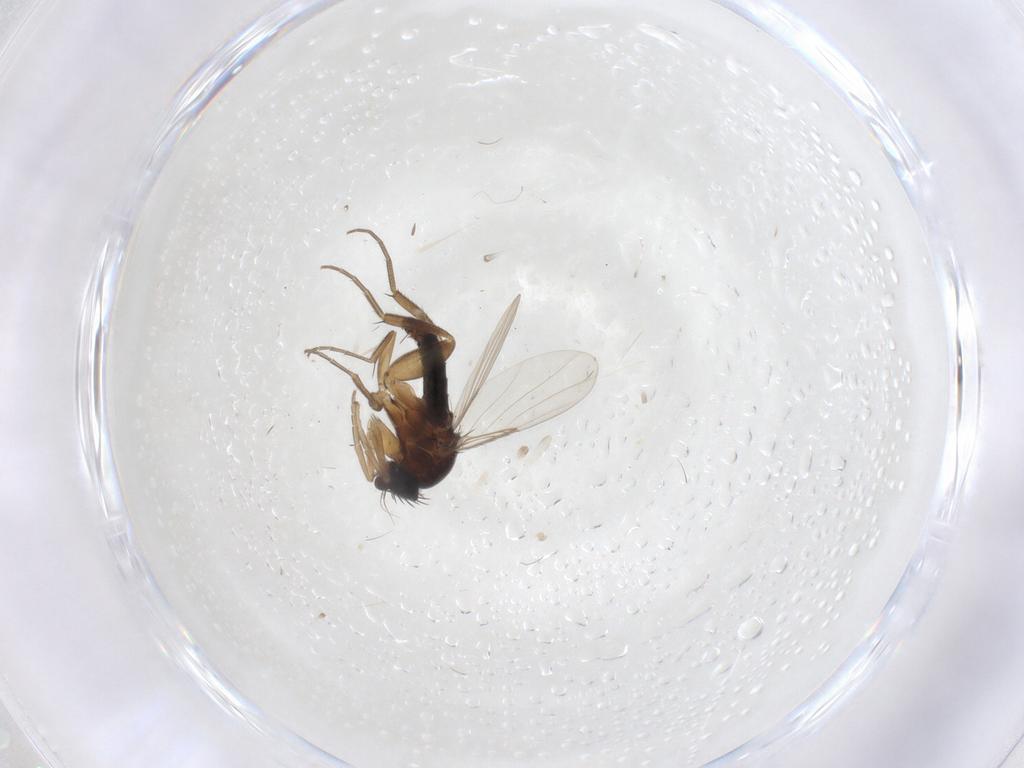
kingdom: Animalia
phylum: Arthropoda
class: Insecta
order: Diptera
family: Phoridae
